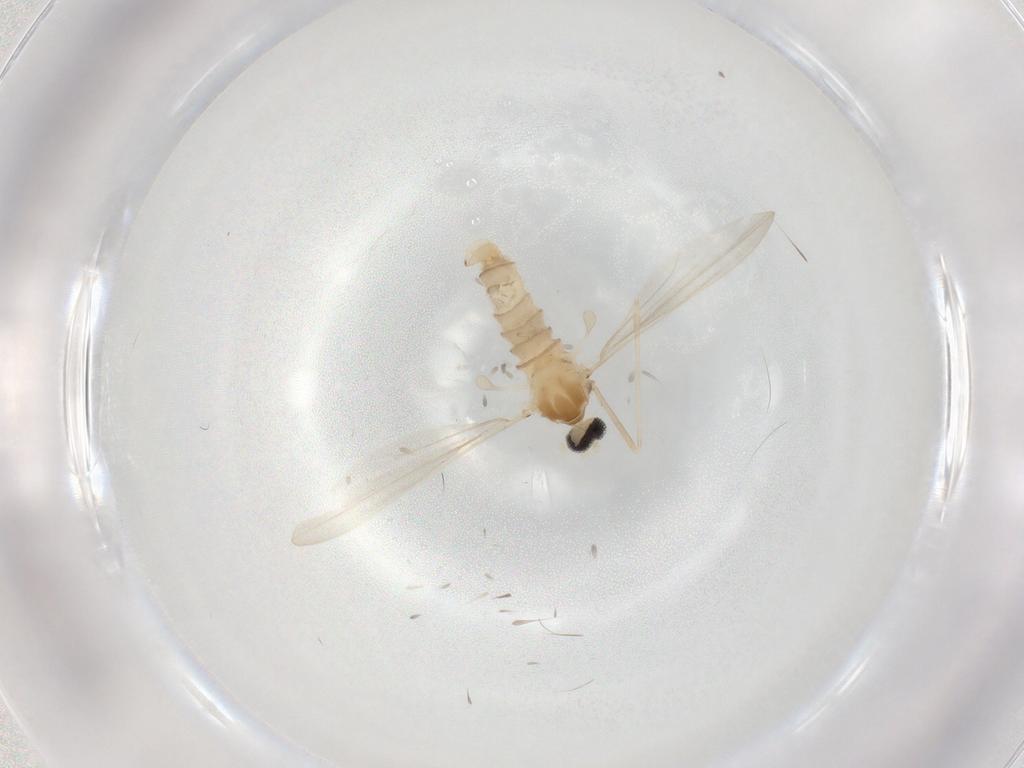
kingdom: Animalia
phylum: Arthropoda
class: Insecta
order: Diptera
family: Cecidomyiidae
